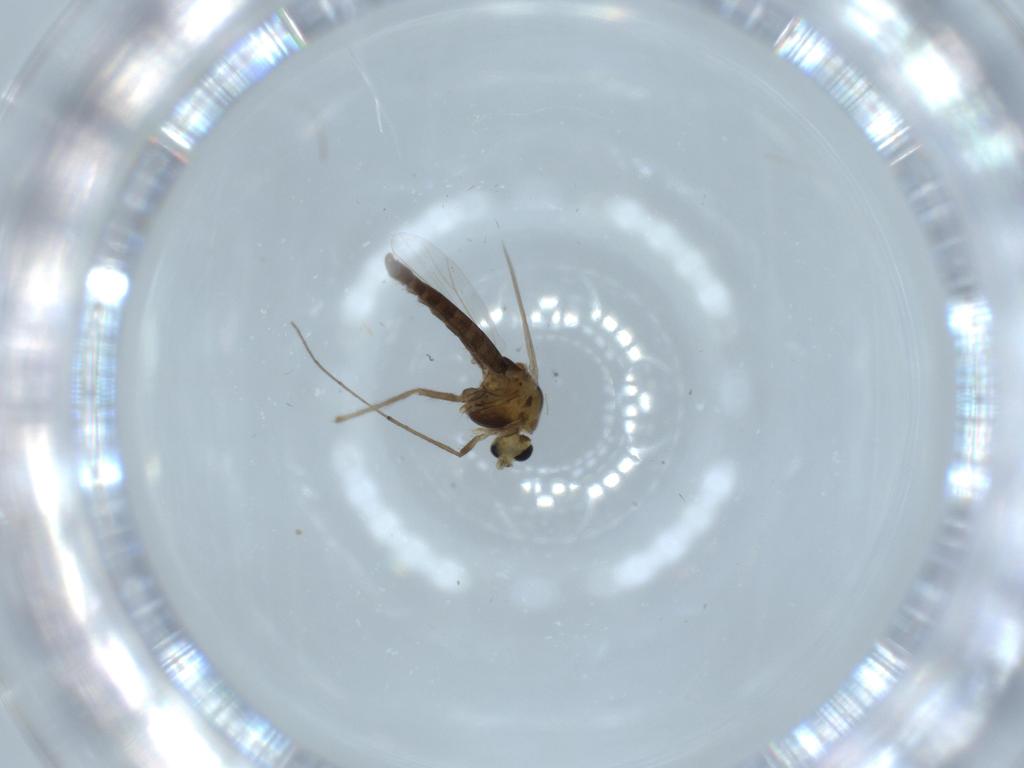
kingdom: Animalia
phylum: Arthropoda
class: Insecta
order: Diptera
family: Chironomidae
